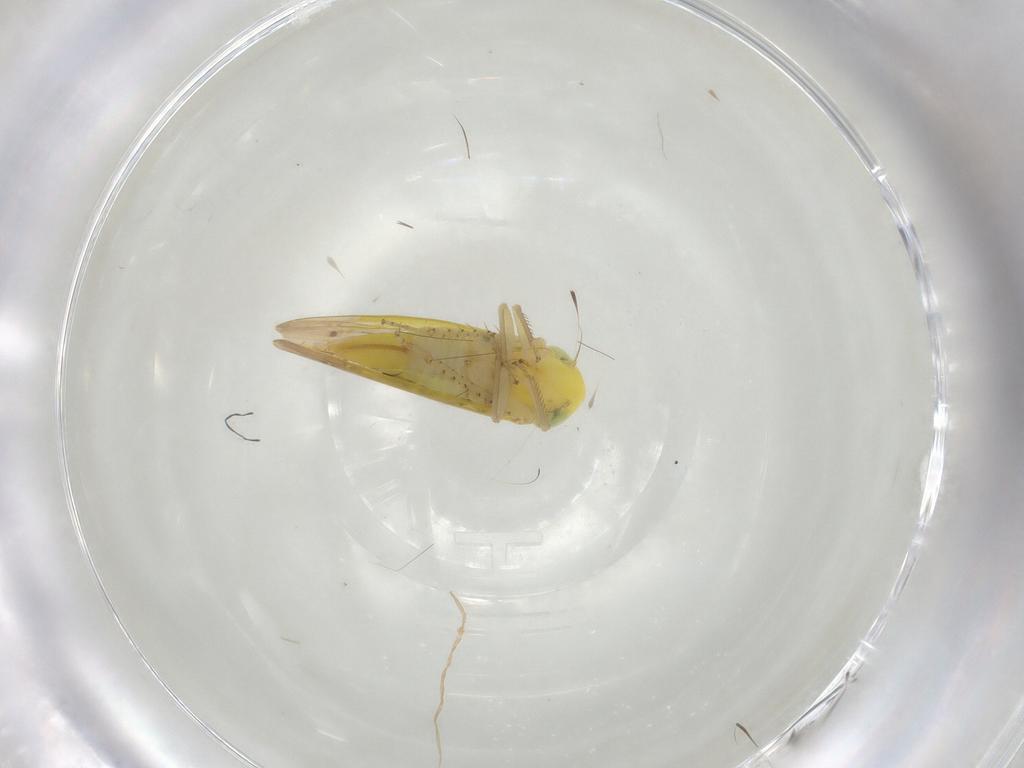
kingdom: Animalia
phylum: Arthropoda
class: Insecta
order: Hemiptera
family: Cicadellidae
